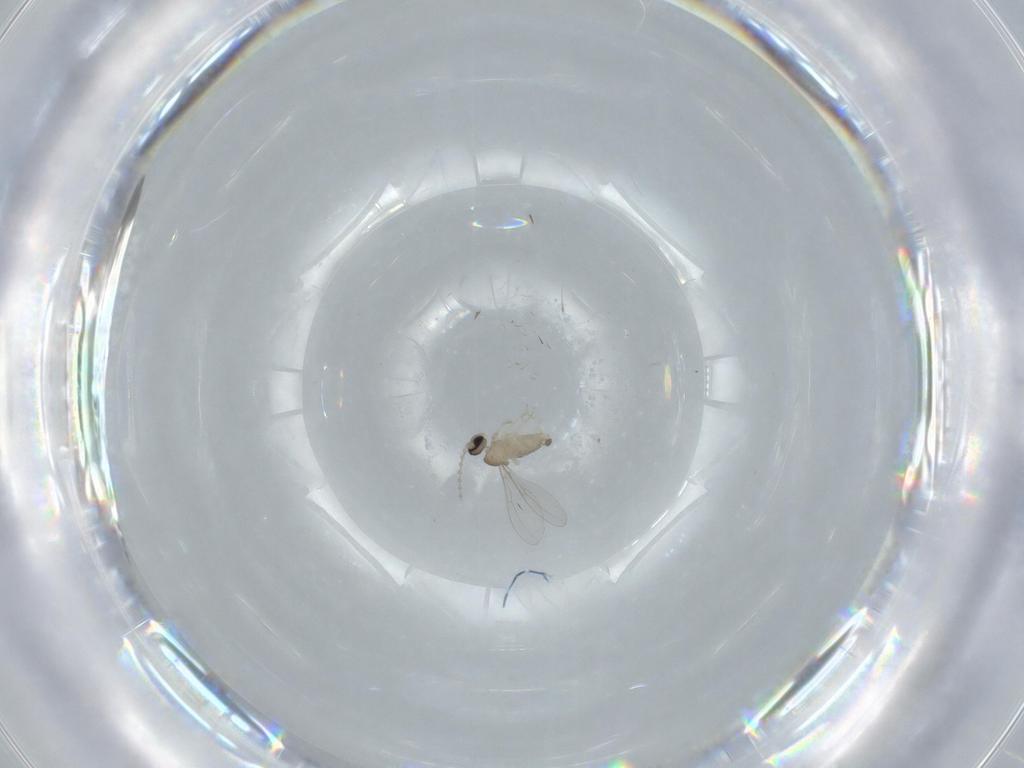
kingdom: Animalia
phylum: Arthropoda
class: Insecta
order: Diptera
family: Cecidomyiidae
